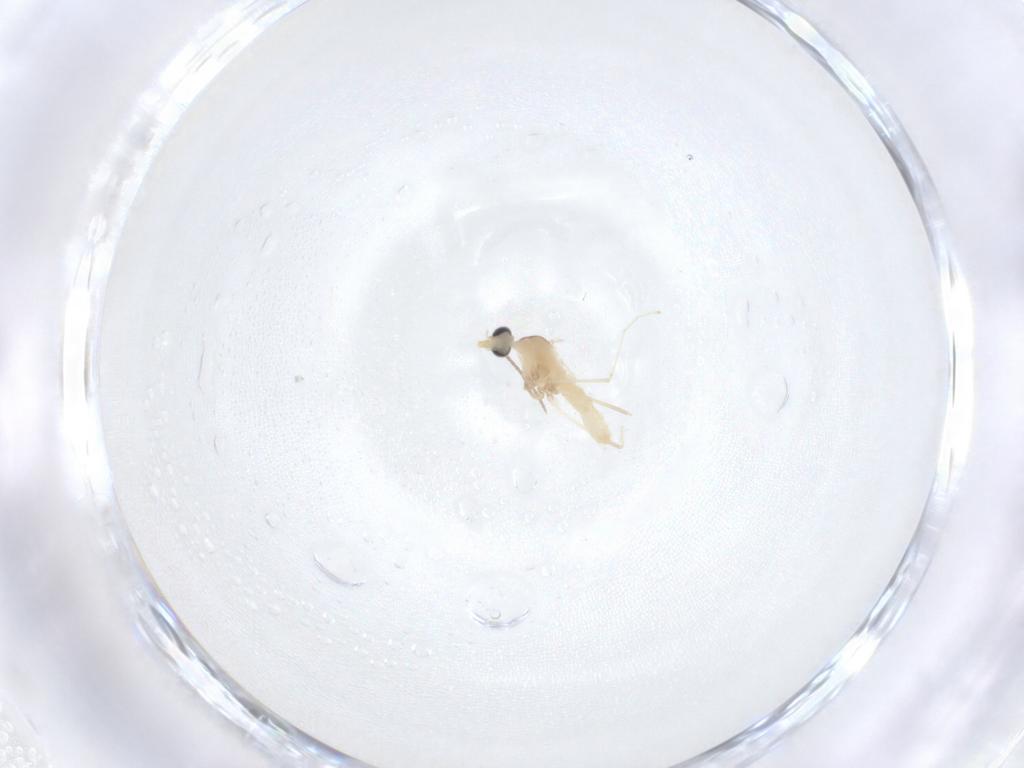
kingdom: Animalia
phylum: Arthropoda
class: Insecta
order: Diptera
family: Cecidomyiidae
